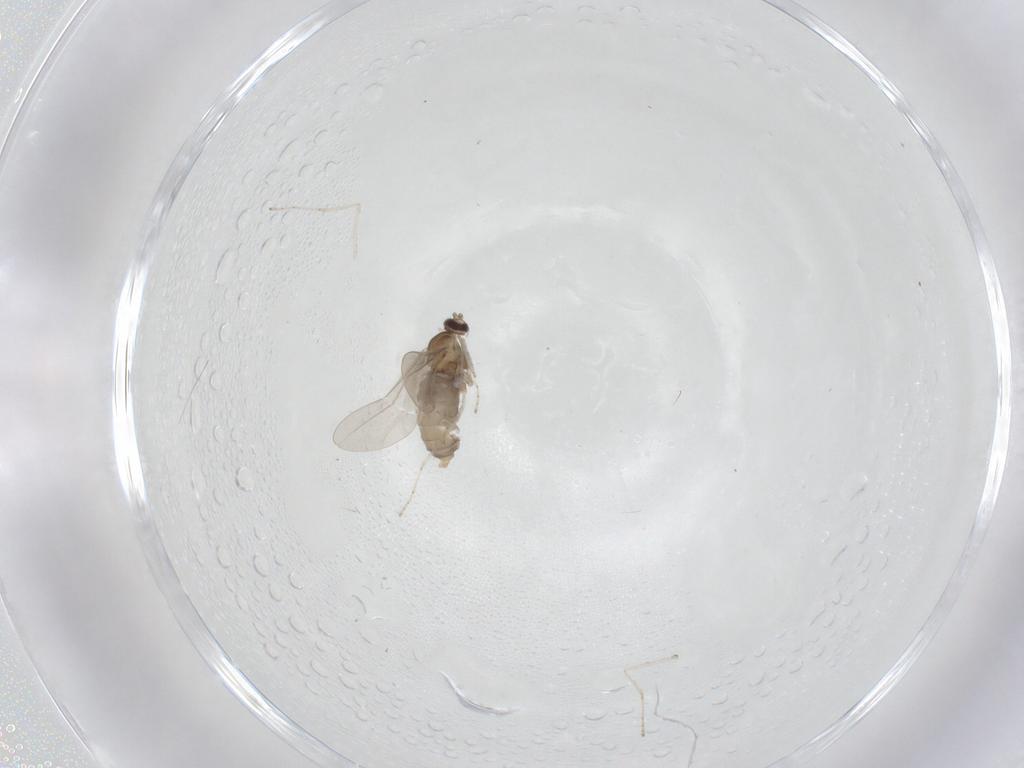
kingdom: Animalia
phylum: Arthropoda
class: Insecta
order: Diptera
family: Cecidomyiidae
